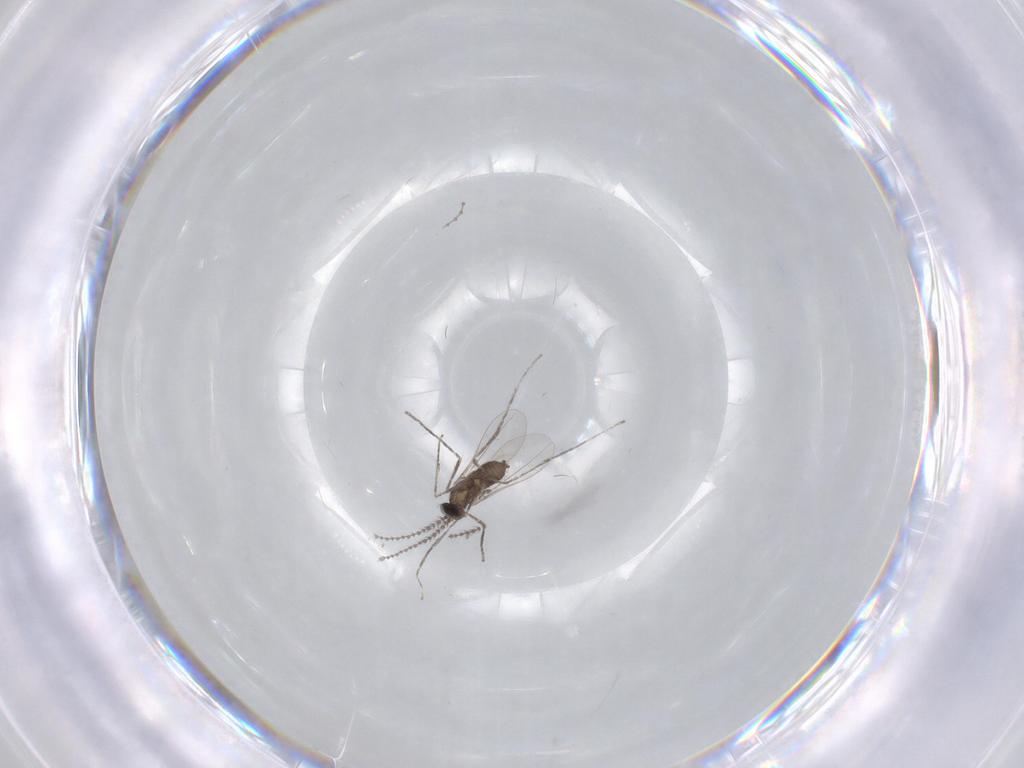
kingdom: Animalia
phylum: Arthropoda
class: Insecta
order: Diptera
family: Cecidomyiidae
